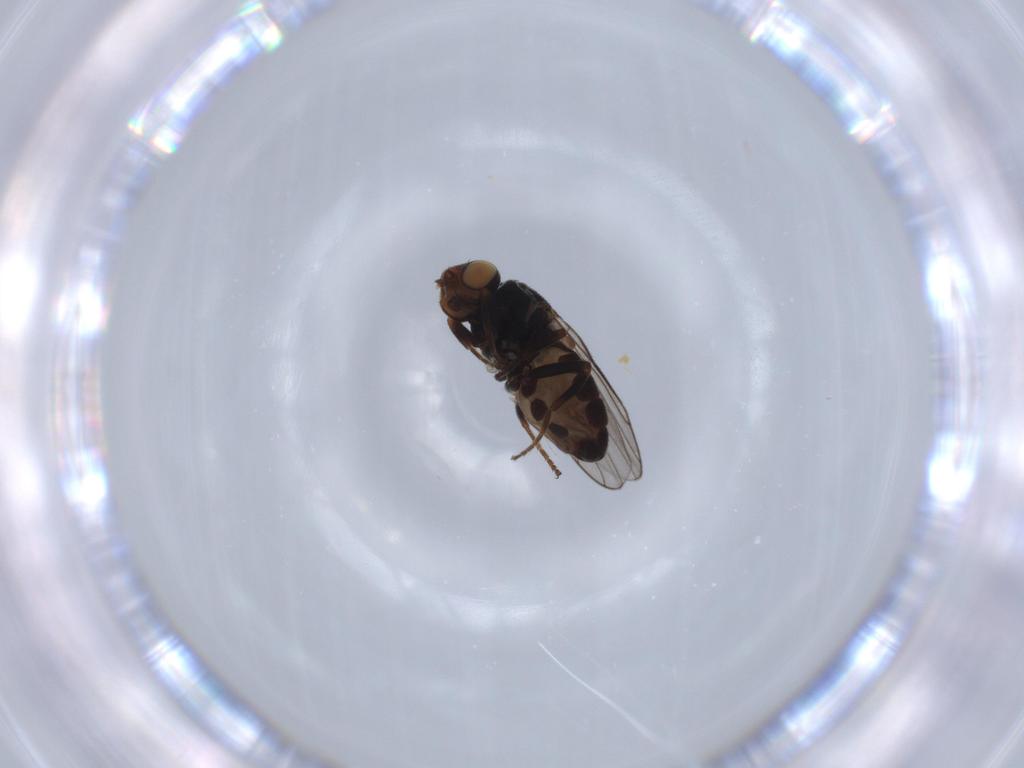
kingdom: Animalia
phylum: Arthropoda
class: Insecta
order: Diptera
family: Chloropidae
